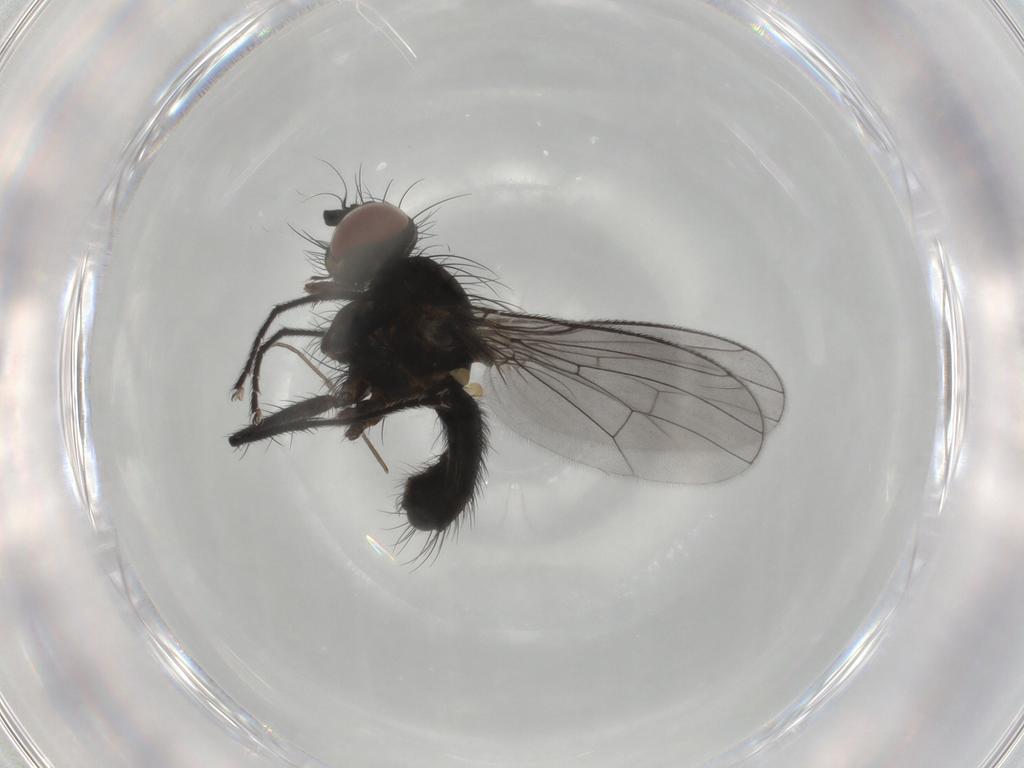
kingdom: Animalia
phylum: Arthropoda
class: Insecta
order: Diptera
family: Muscidae
